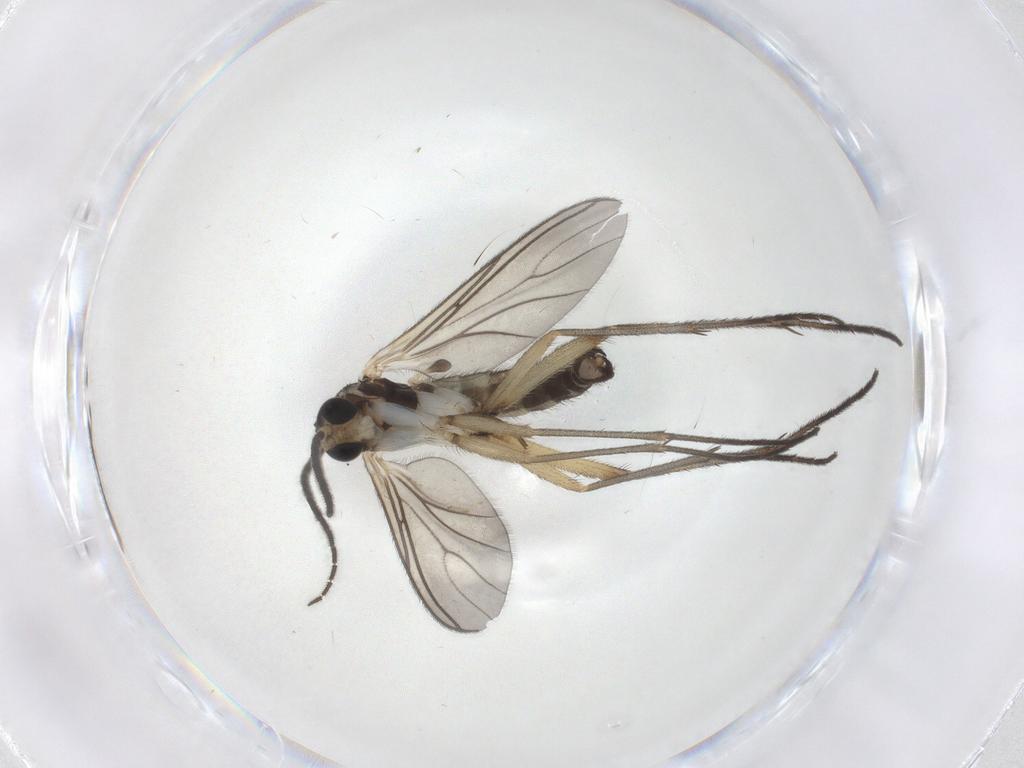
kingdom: Animalia
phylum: Arthropoda
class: Insecta
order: Diptera
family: Sciaridae
